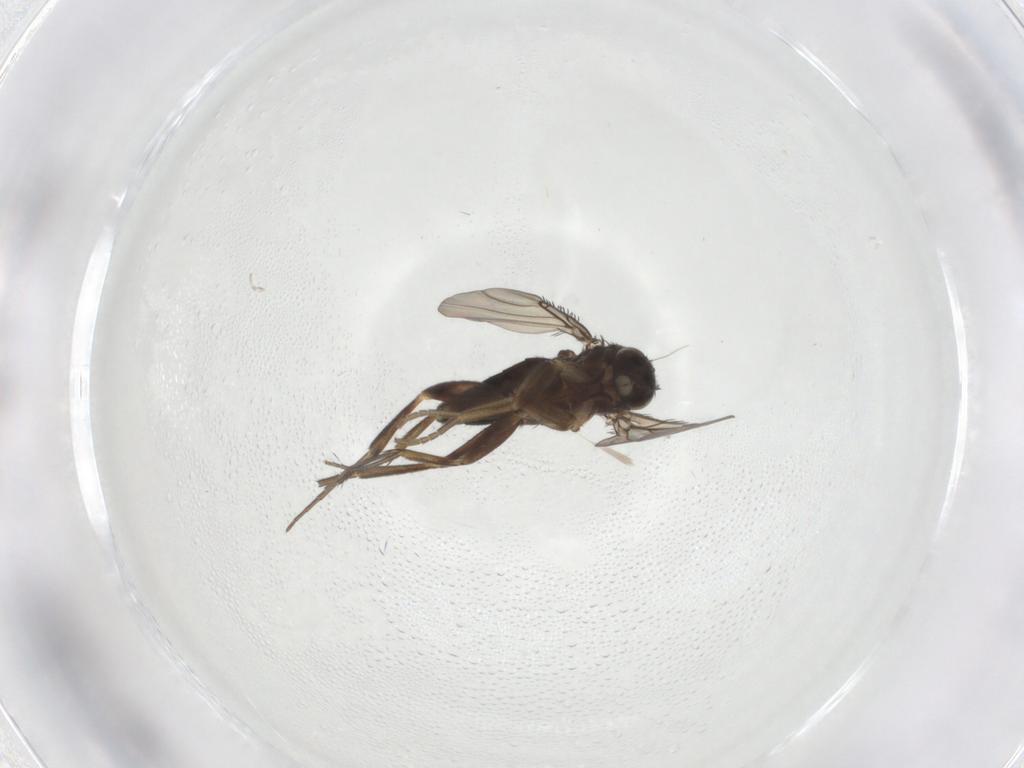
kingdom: Animalia
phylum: Arthropoda
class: Insecta
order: Diptera
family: Phoridae
